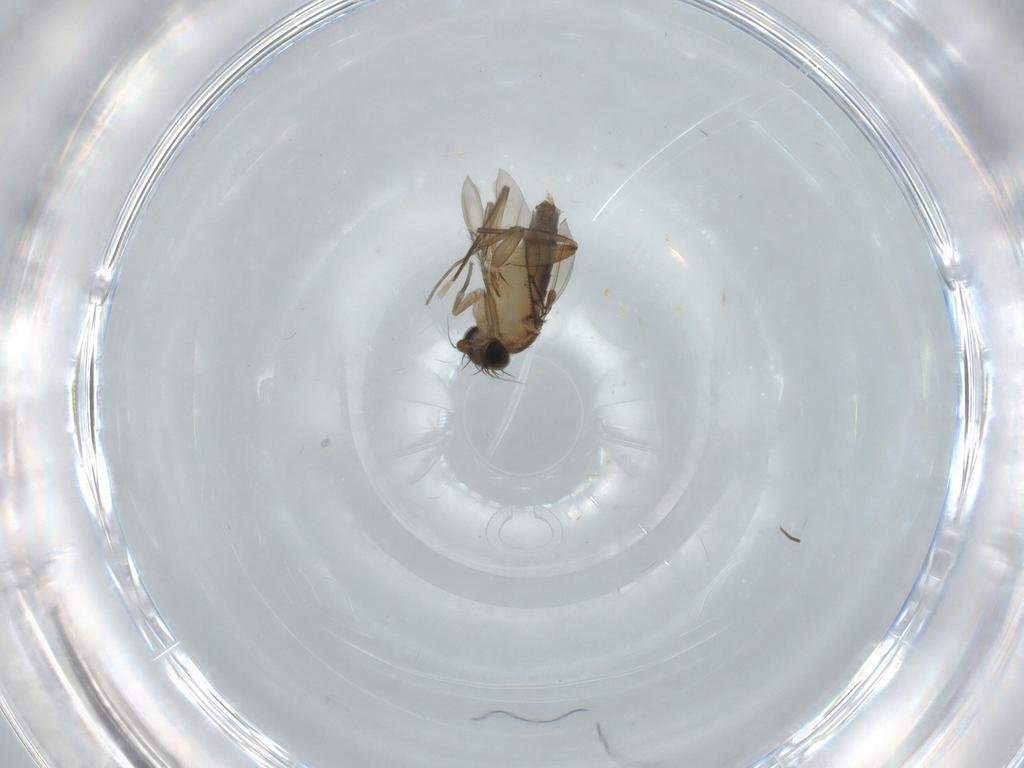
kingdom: Animalia
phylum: Arthropoda
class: Insecta
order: Diptera
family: Phoridae
